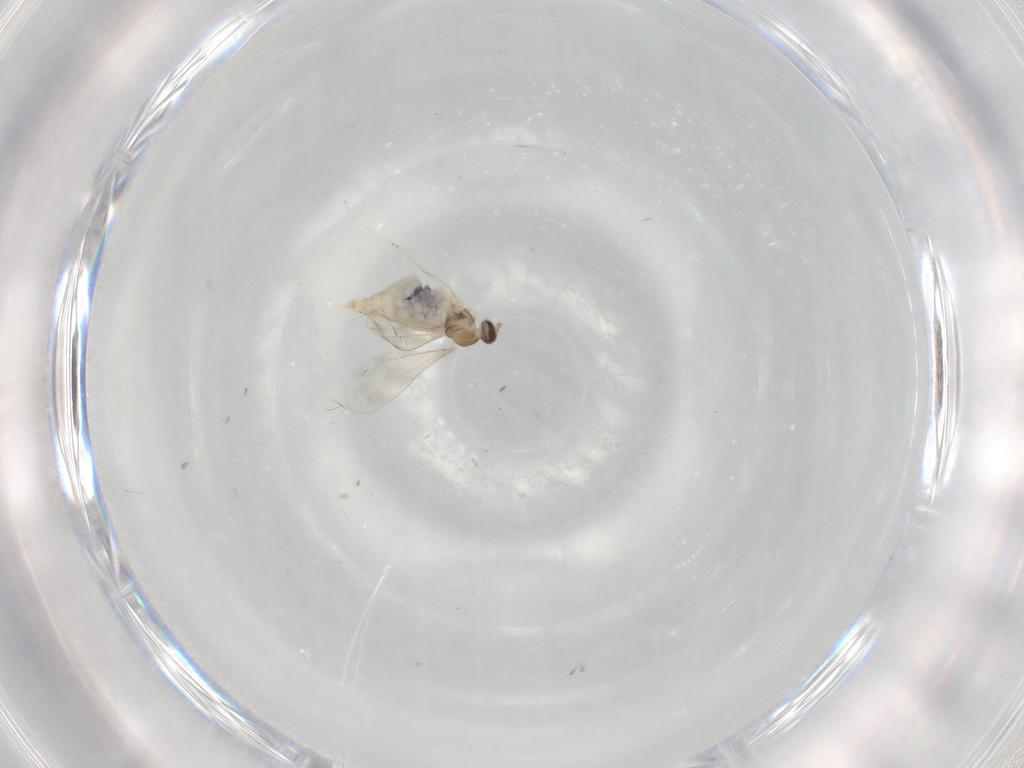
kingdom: Animalia
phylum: Arthropoda
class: Insecta
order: Diptera
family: Cecidomyiidae
